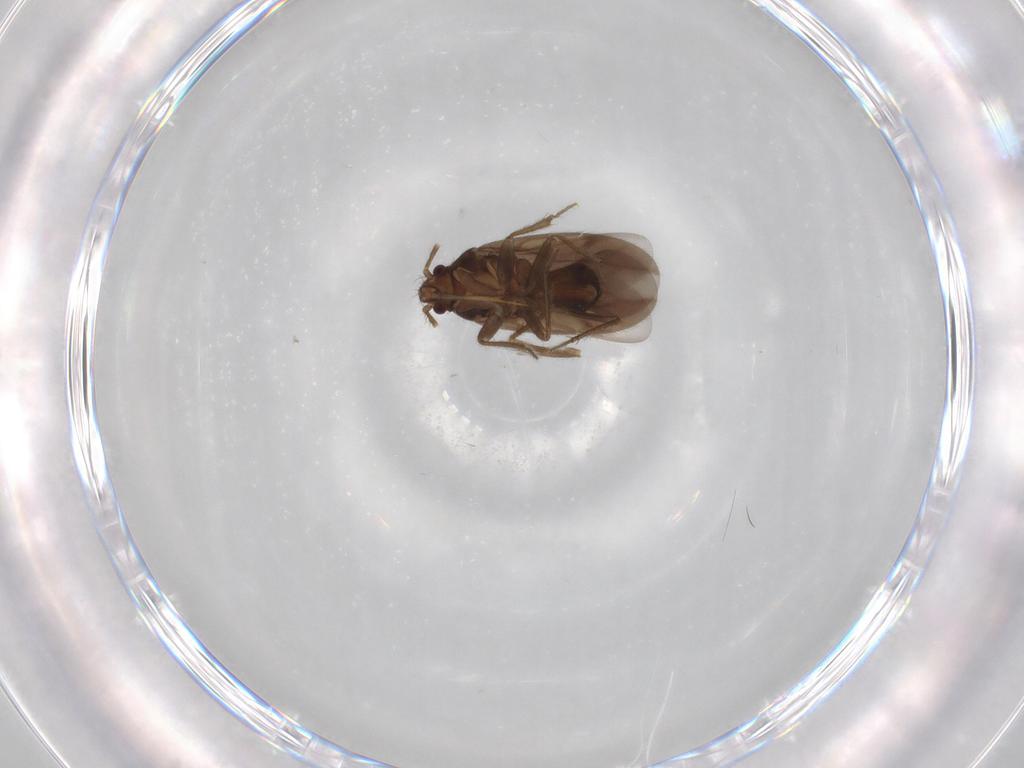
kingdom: Animalia
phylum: Arthropoda
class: Insecta
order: Hemiptera
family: Ceratocombidae
